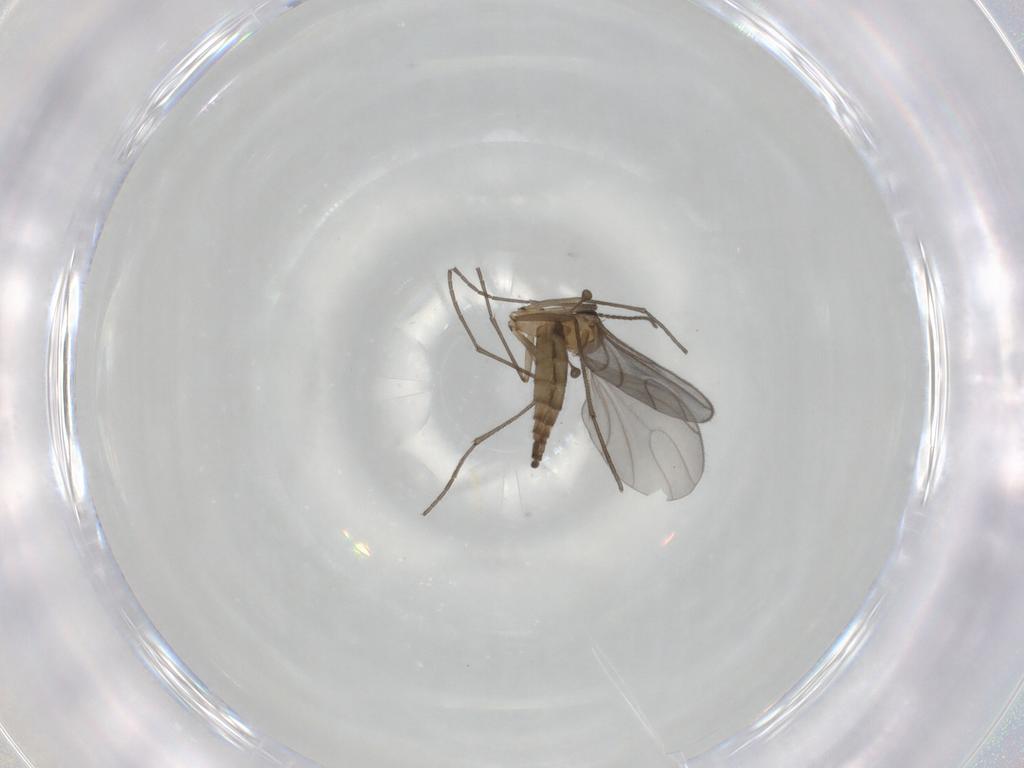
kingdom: Animalia
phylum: Arthropoda
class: Insecta
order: Diptera
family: Sciaridae
